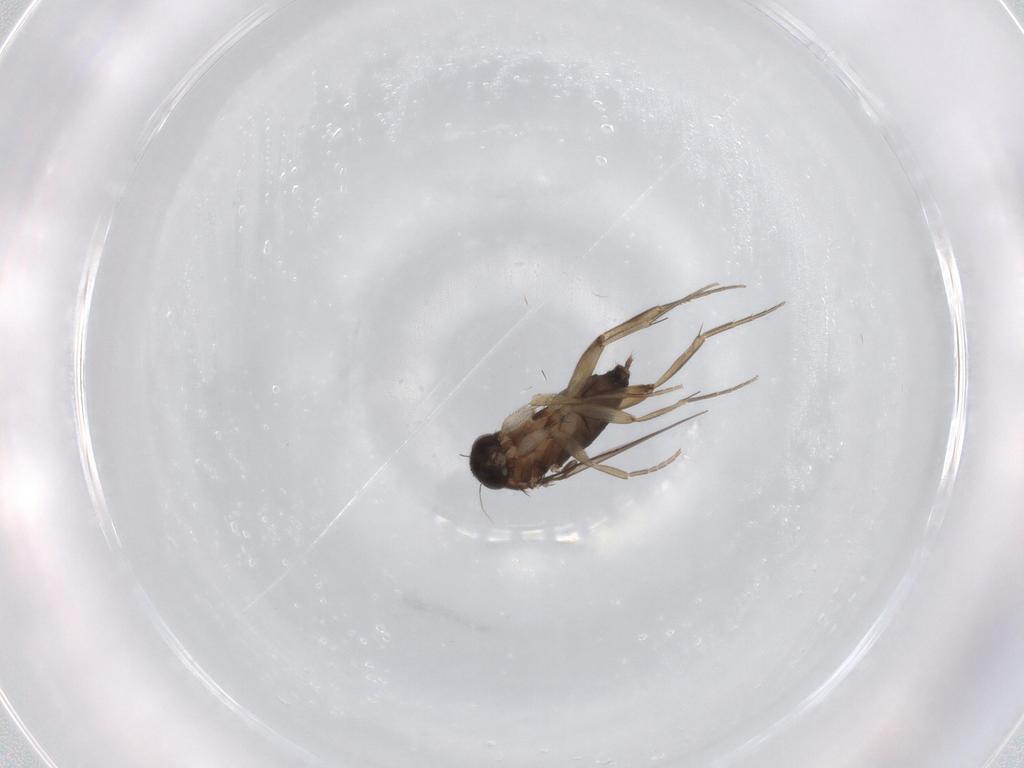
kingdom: Animalia
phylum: Arthropoda
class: Insecta
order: Diptera
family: Phoridae
